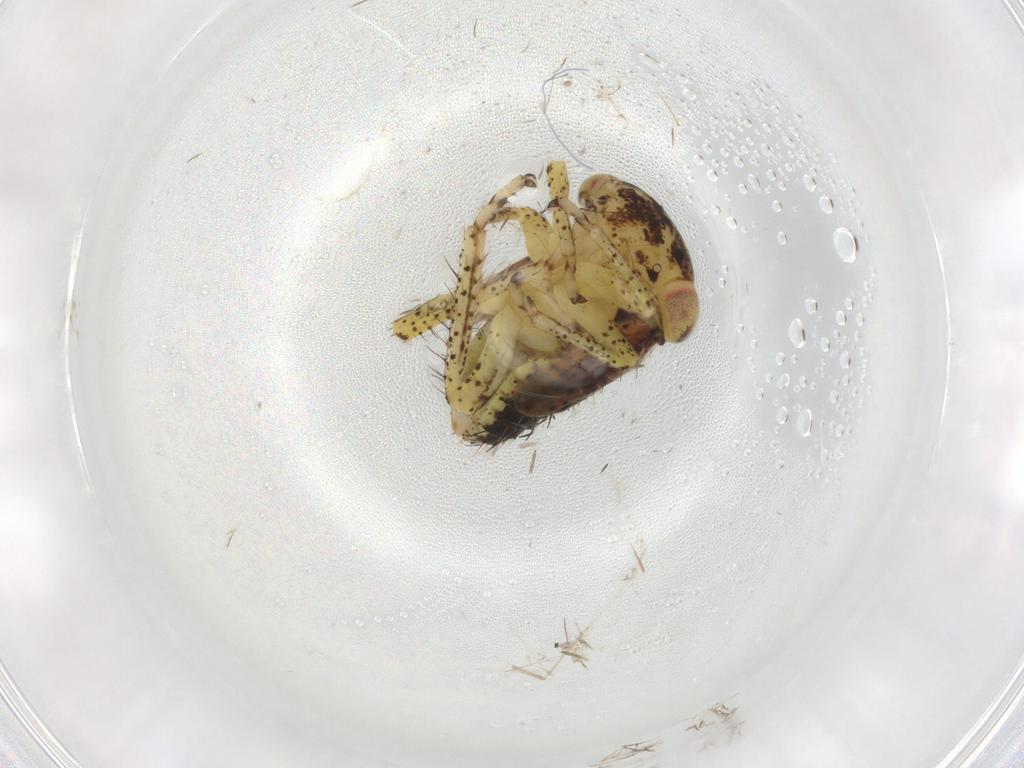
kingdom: Animalia
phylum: Arthropoda
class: Insecta
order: Hemiptera
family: Cicadellidae
